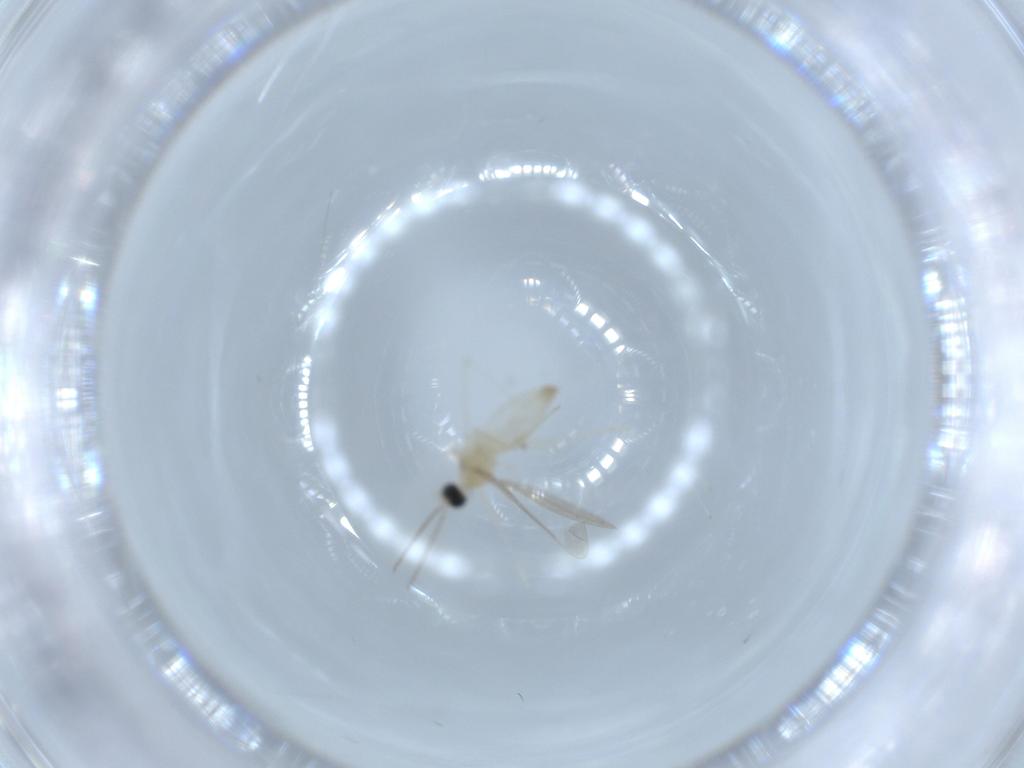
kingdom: Animalia
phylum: Arthropoda
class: Insecta
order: Diptera
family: Cecidomyiidae
